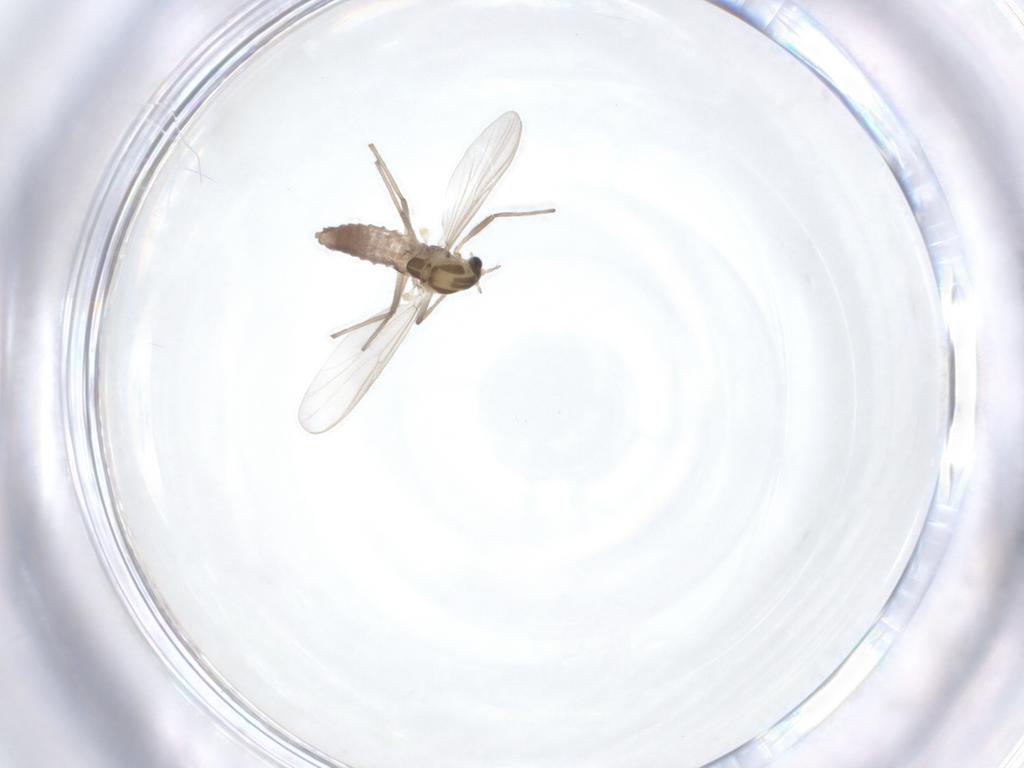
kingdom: Animalia
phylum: Arthropoda
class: Insecta
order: Diptera
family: Chironomidae
